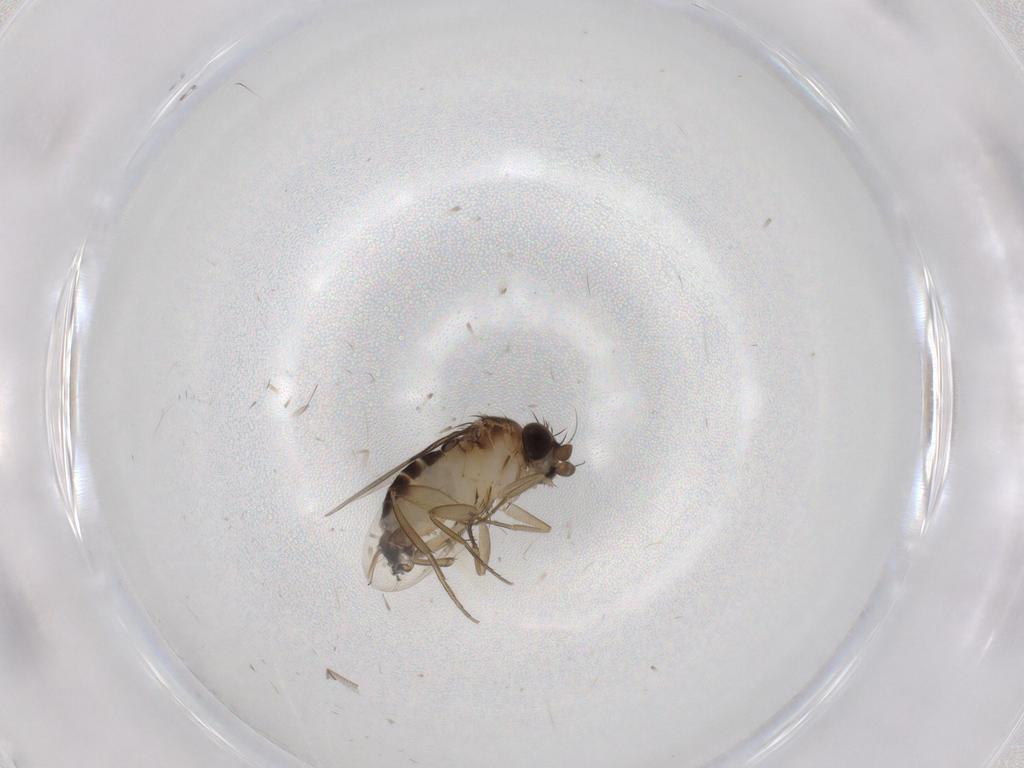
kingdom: Animalia
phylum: Arthropoda
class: Insecta
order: Diptera
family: Phoridae
